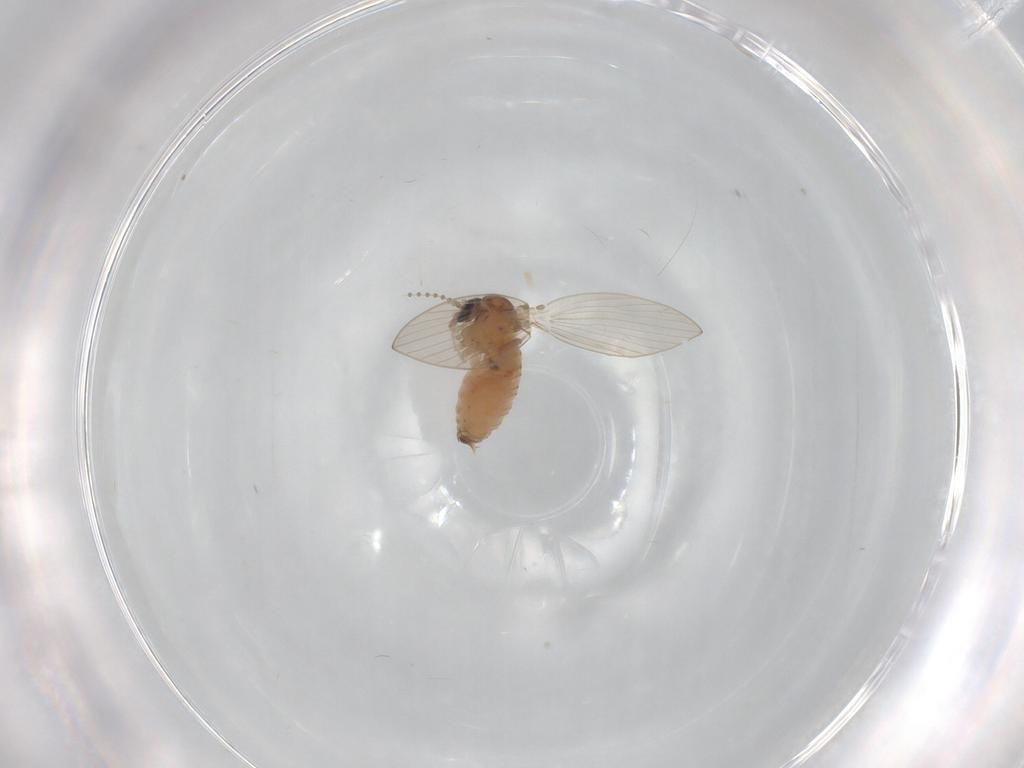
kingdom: Animalia
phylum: Arthropoda
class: Insecta
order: Diptera
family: Psychodidae
